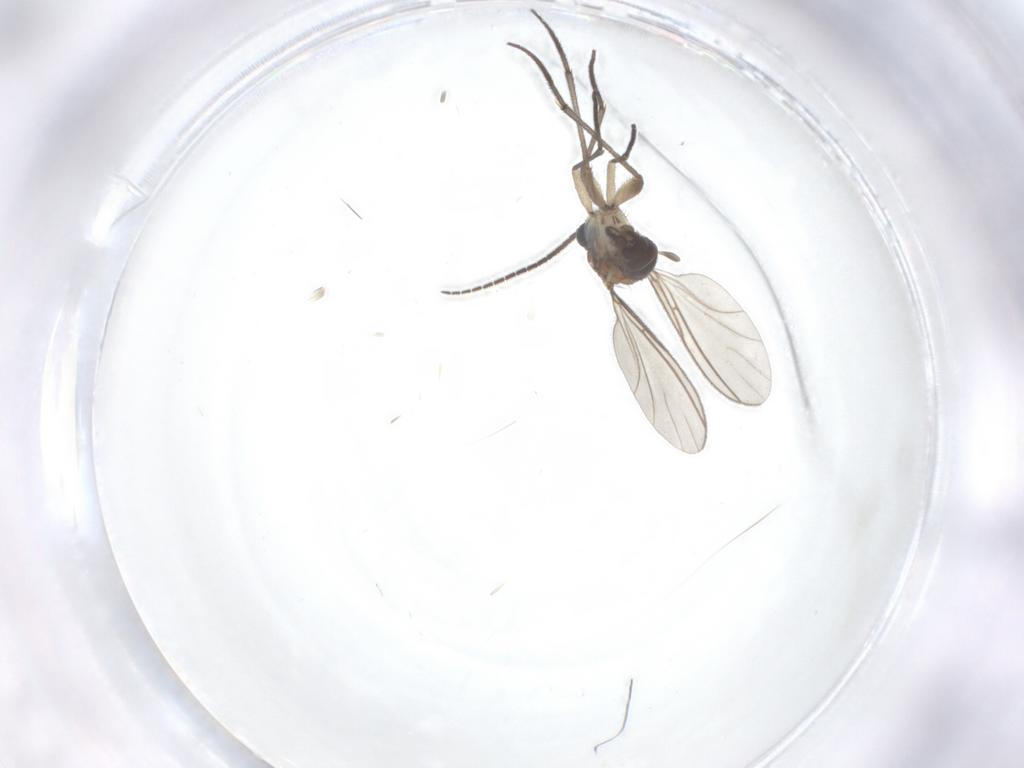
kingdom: Animalia
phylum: Arthropoda
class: Insecta
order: Diptera
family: Sciaridae
